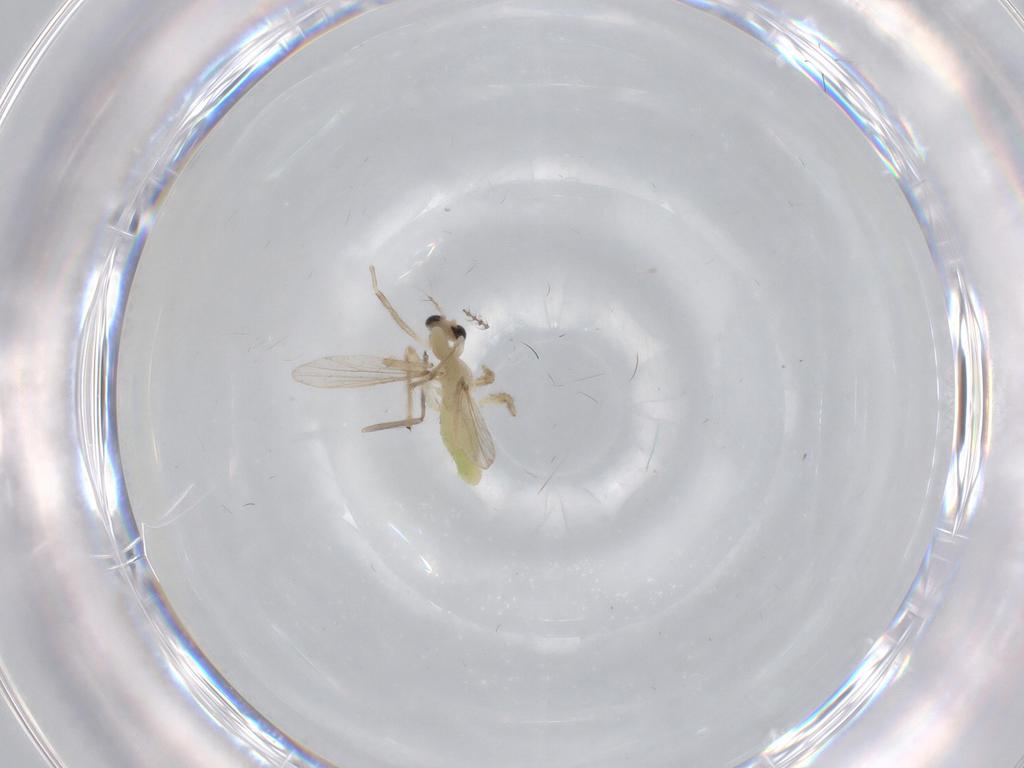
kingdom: Animalia
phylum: Arthropoda
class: Insecta
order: Diptera
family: Chironomidae
